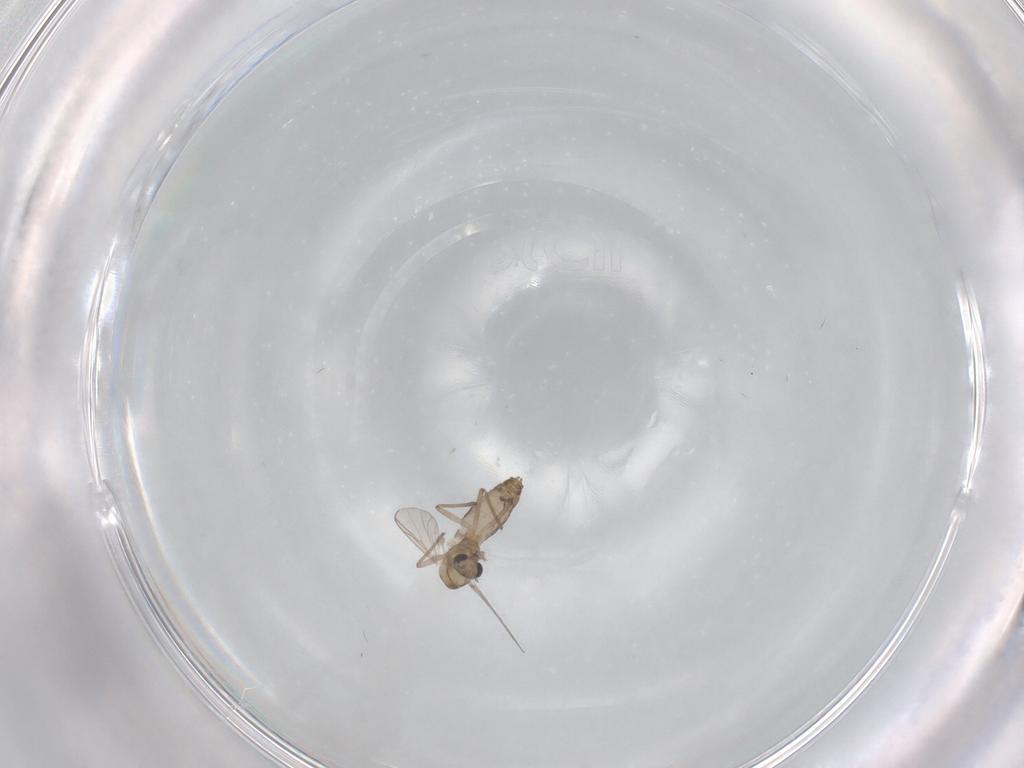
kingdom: Animalia
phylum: Arthropoda
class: Insecta
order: Diptera
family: Chironomidae
